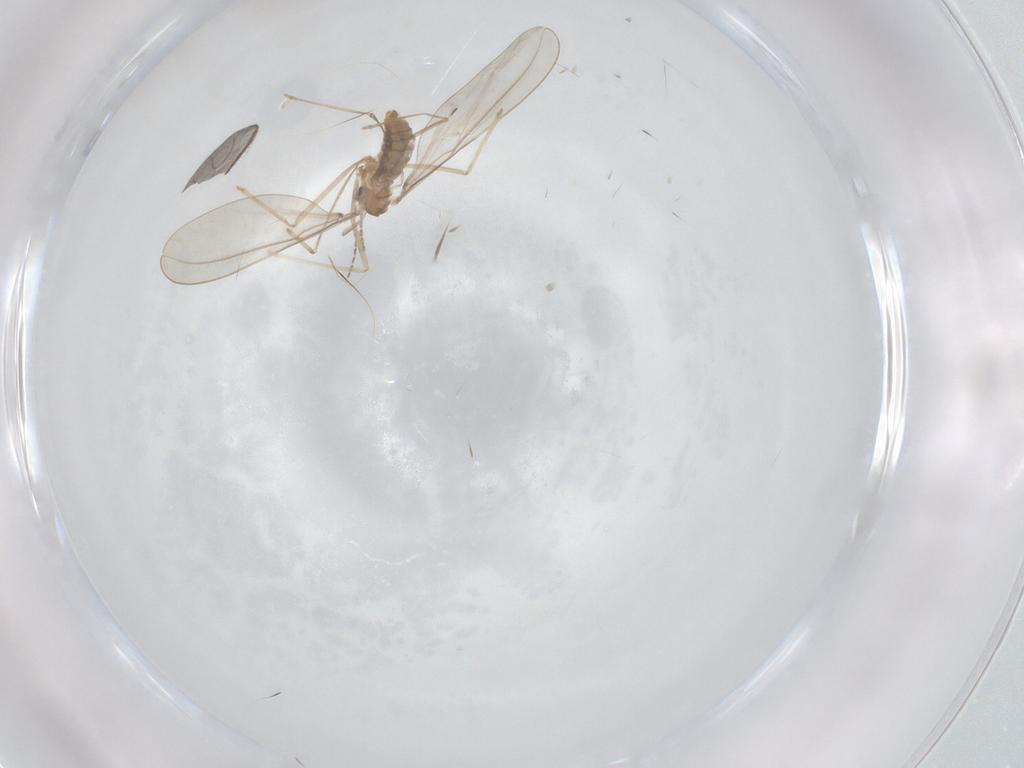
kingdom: Animalia
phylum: Arthropoda
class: Insecta
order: Diptera
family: Cecidomyiidae
